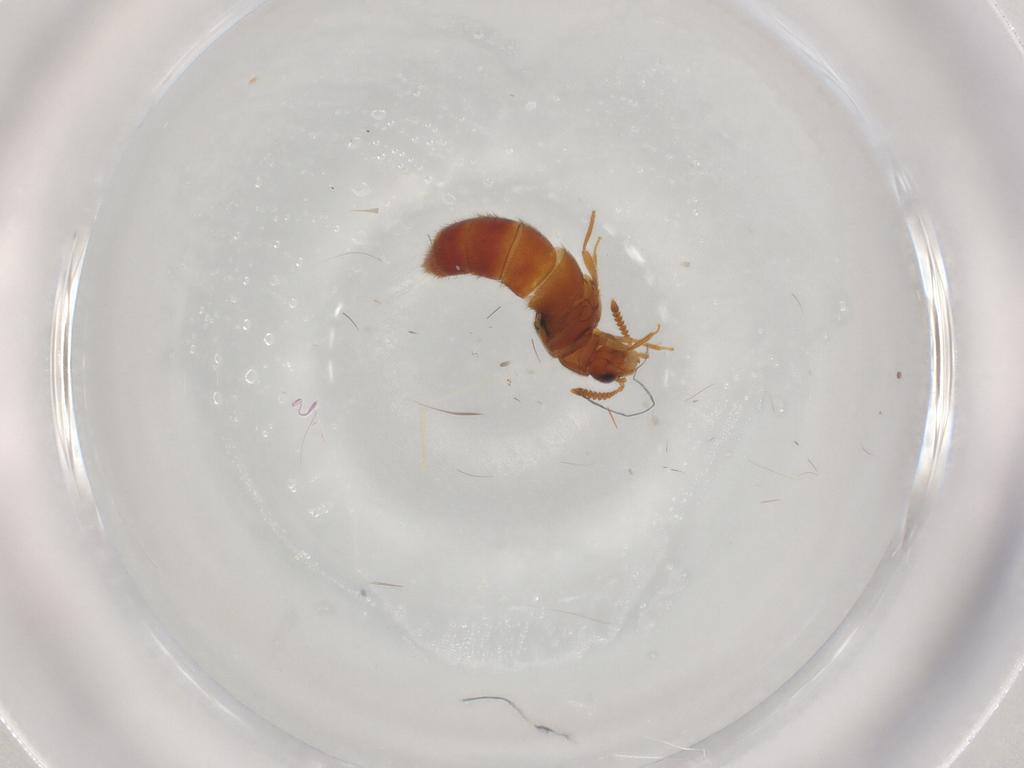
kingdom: Animalia
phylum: Arthropoda
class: Insecta
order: Coleoptera
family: Staphylinidae
